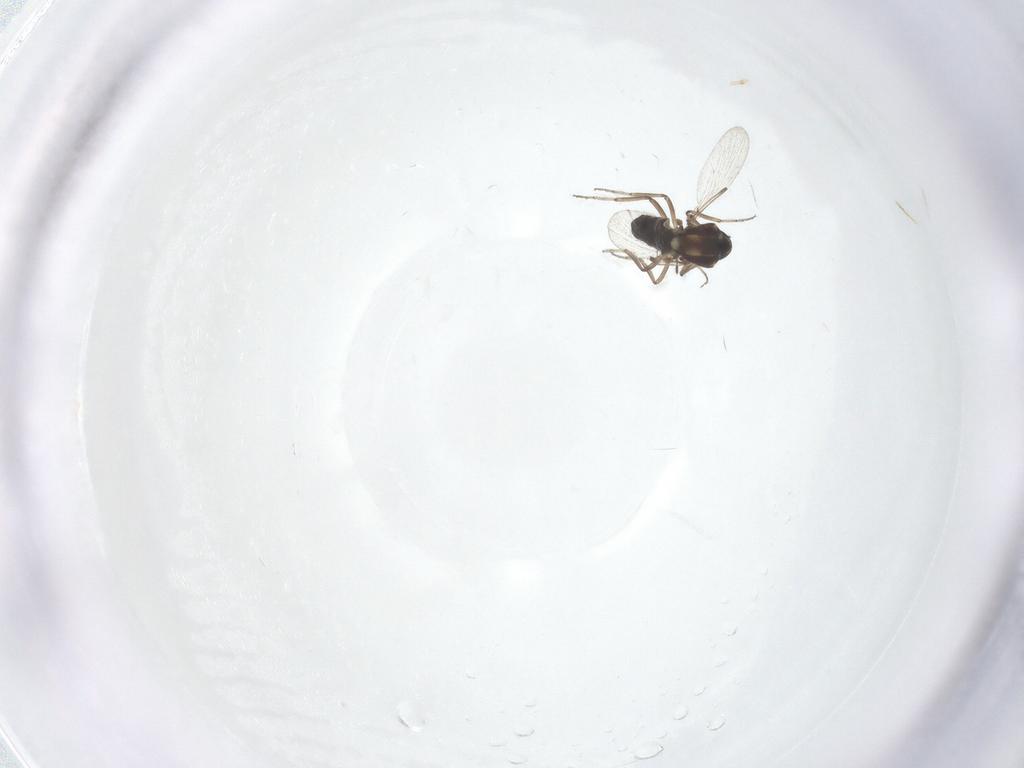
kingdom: Animalia
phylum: Arthropoda
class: Insecta
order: Diptera
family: Ceratopogonidae
